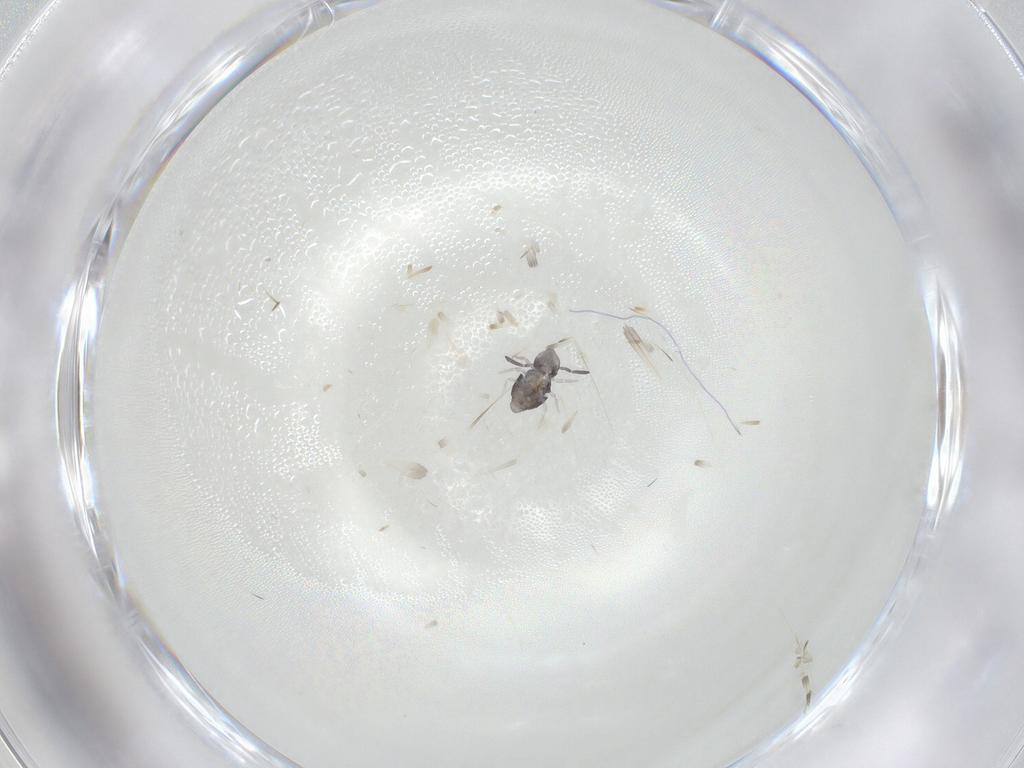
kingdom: Animalia
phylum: Arthropoda
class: Collembola
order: Symphypleona
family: Katiannidae
